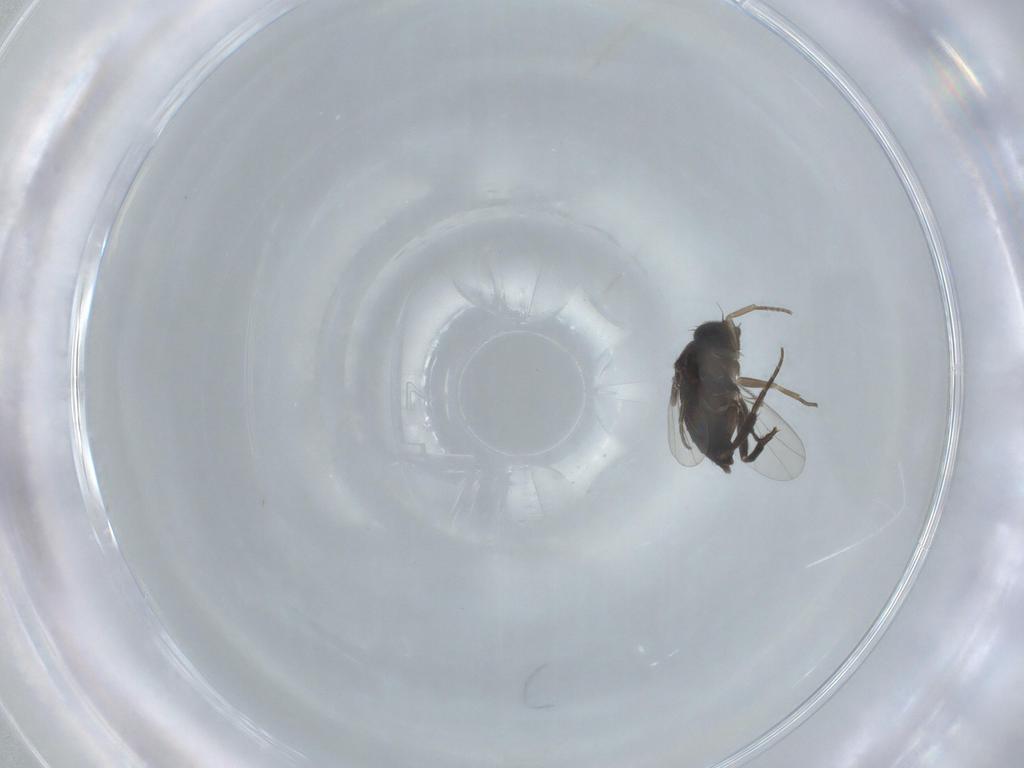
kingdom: Animalia
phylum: Arthropoda
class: Insecta
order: Diptera
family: Phoridae
